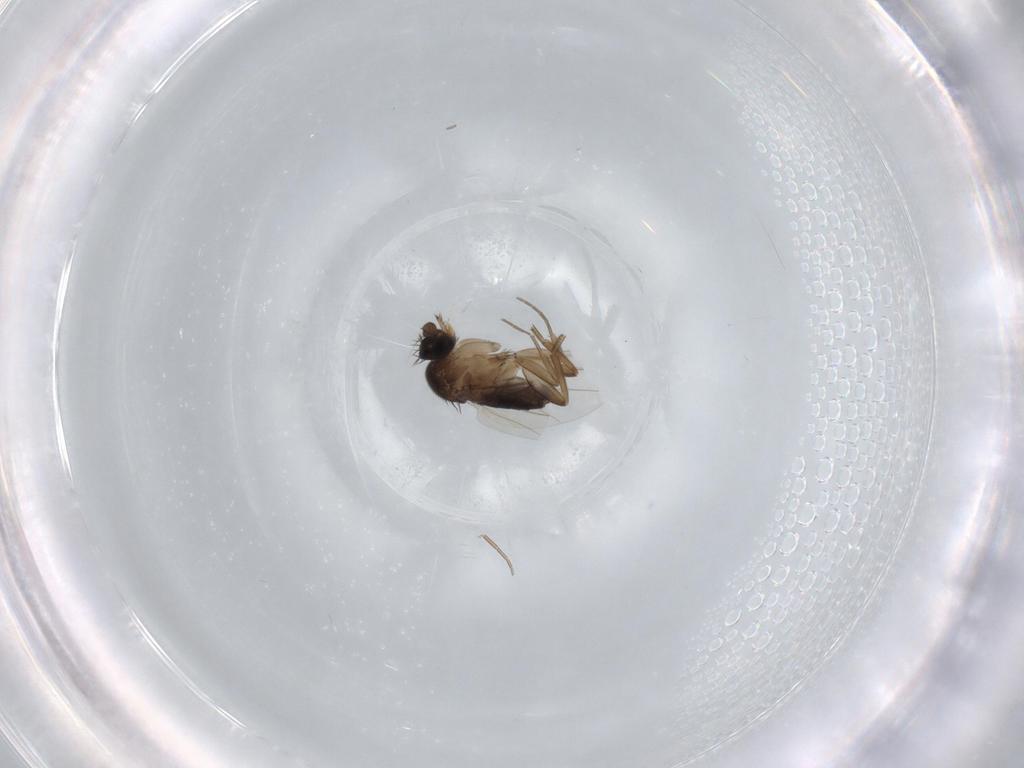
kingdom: Animalia
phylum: Arthropoda
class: Insecta
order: Diptera
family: Phoridae
